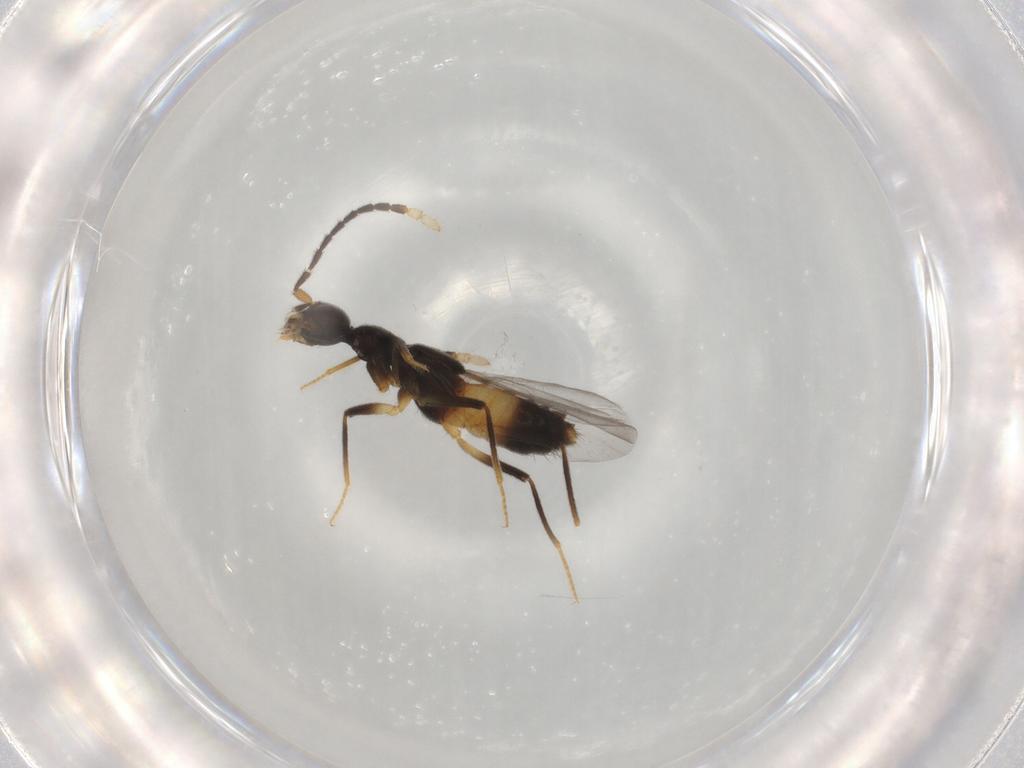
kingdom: Animalia
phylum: Arthropoda
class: Insecta
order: Coleoptera
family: Staphylinidae
